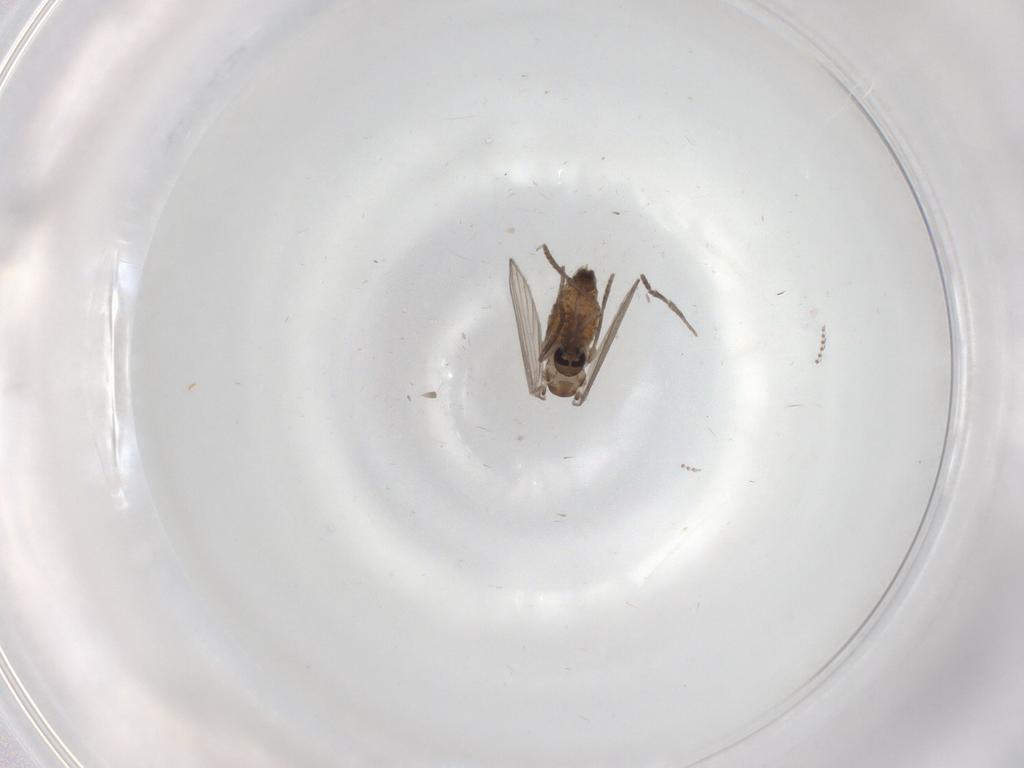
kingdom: Animalia
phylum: Arthropoda
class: Insecta
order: Diptera
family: Psychodidae
